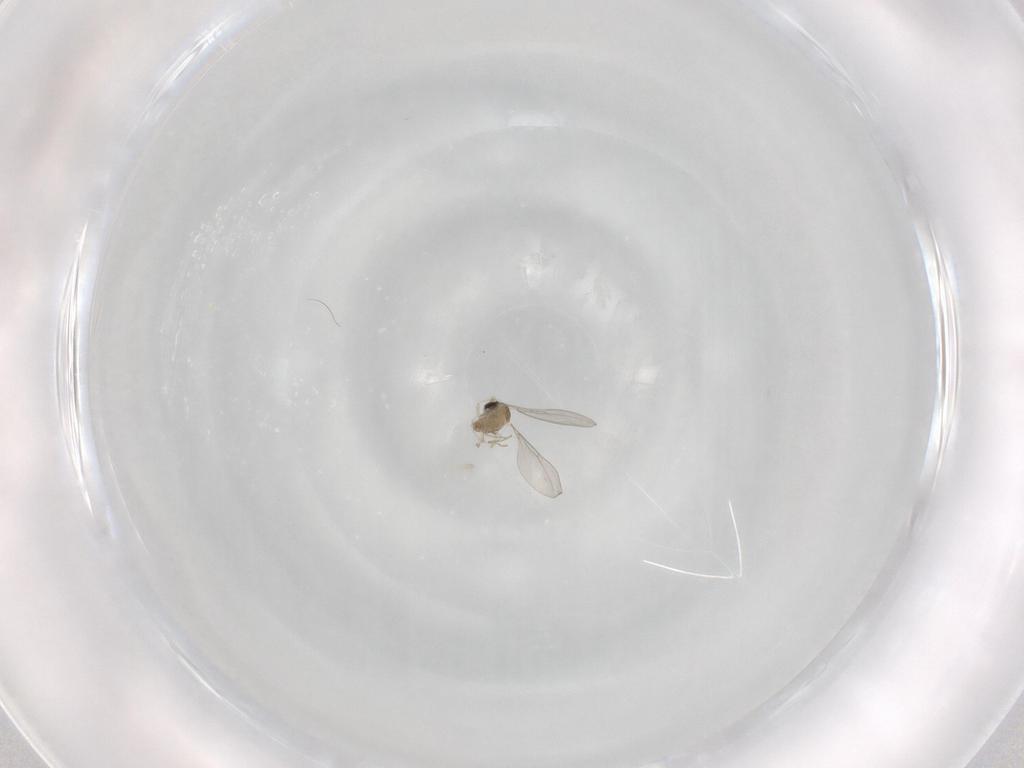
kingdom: Animalia
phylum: Arthropoda
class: Insecta
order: Diptera
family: Cecidomyiidae
